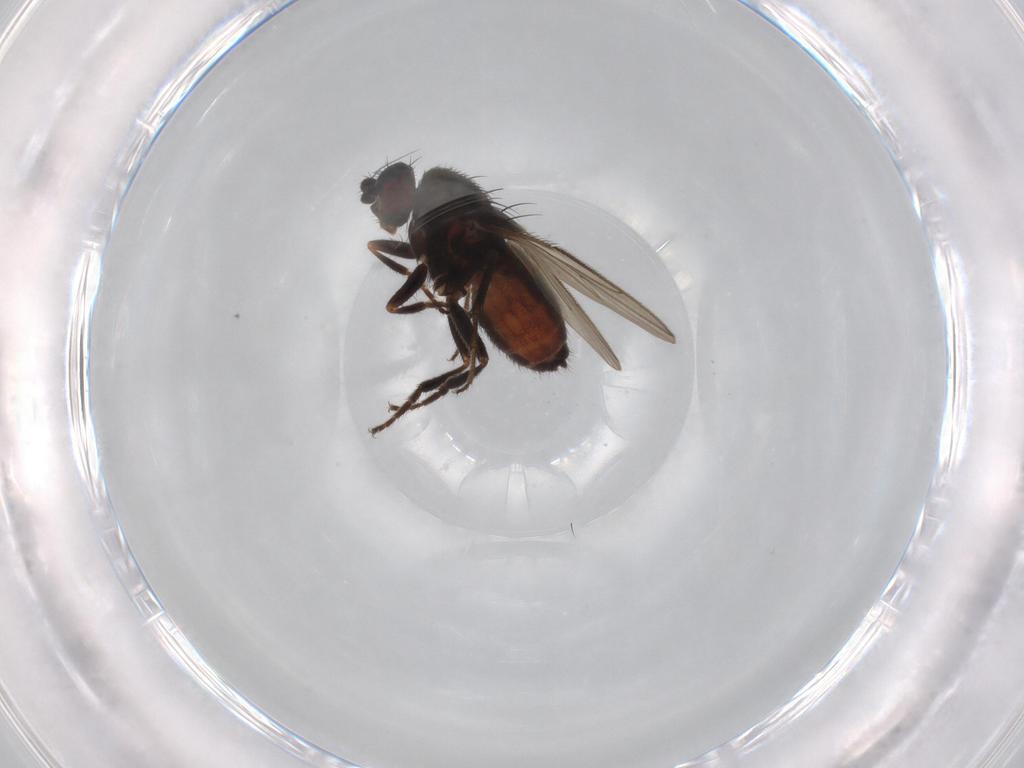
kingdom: Animalia
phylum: Arthropoda
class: Insecta
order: Diptera
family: Sphaeroceridae
